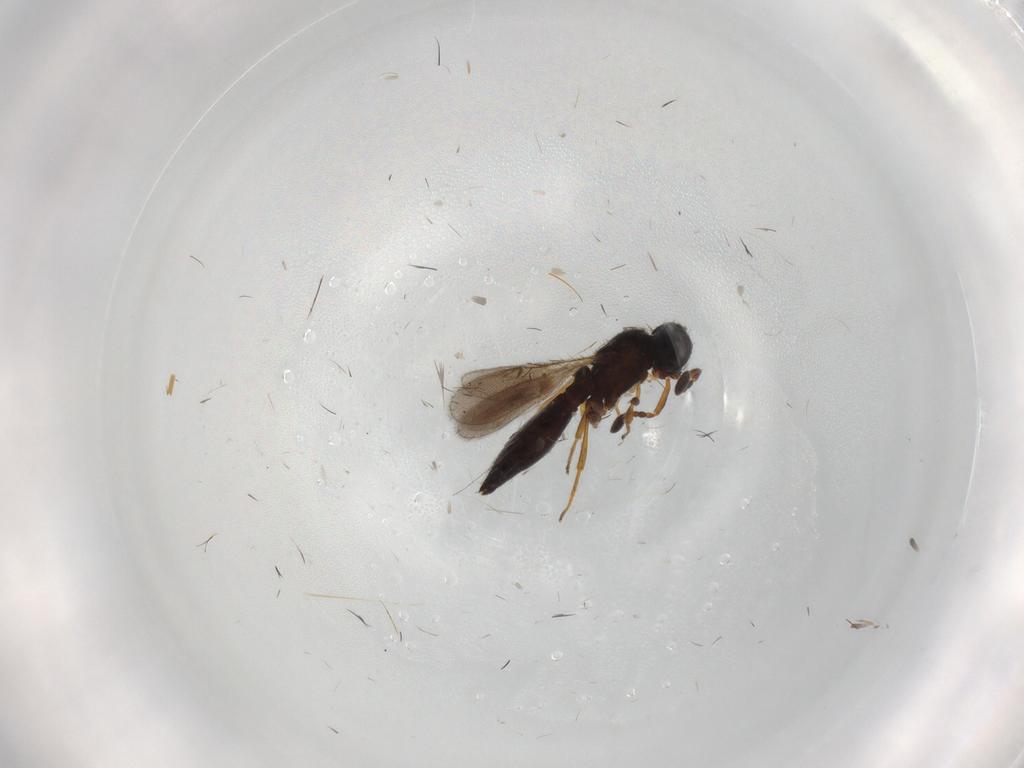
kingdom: Animalia
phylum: Arthropoda
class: Insecta
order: Hymenoptera
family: Scelionidae
